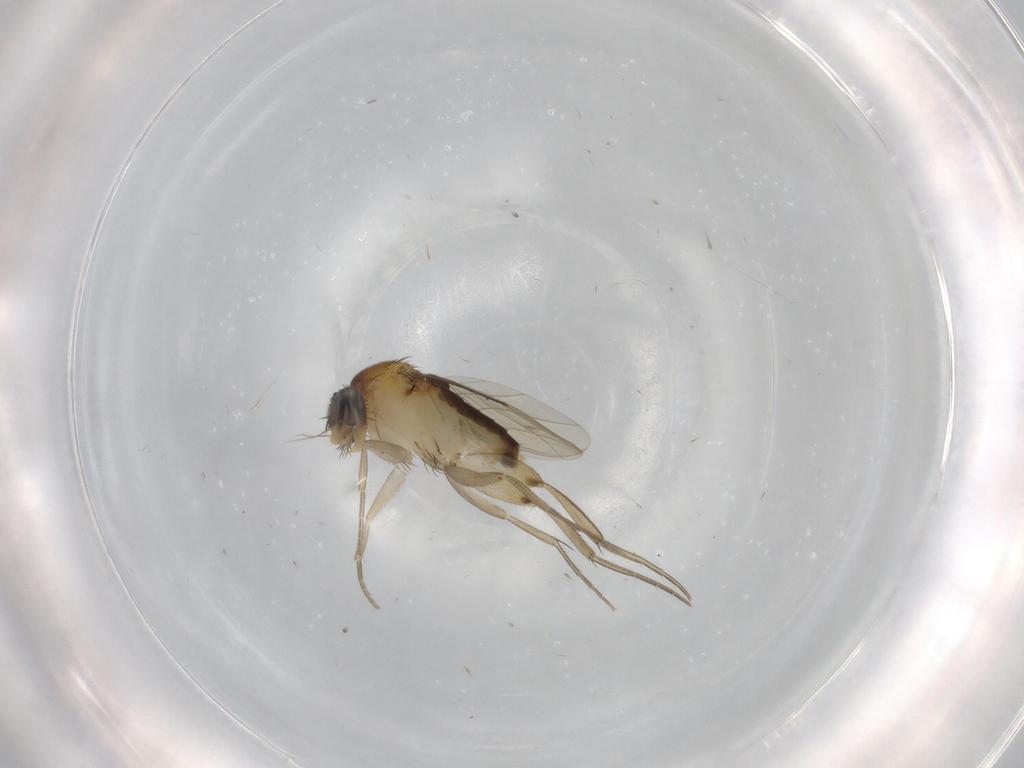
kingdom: Animalia
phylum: Arthropoda
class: Insecta
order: Diptera
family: Phoridae
